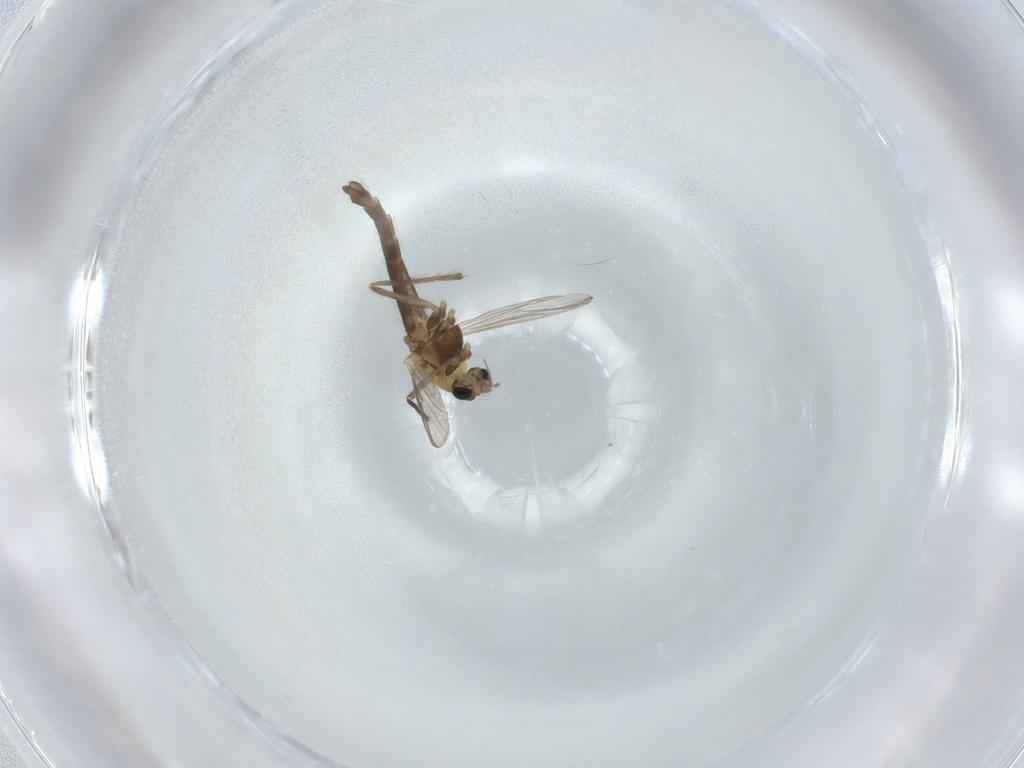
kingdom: Animalia
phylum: Arthropoda
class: Insecta
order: Diptera
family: Chironomidae
